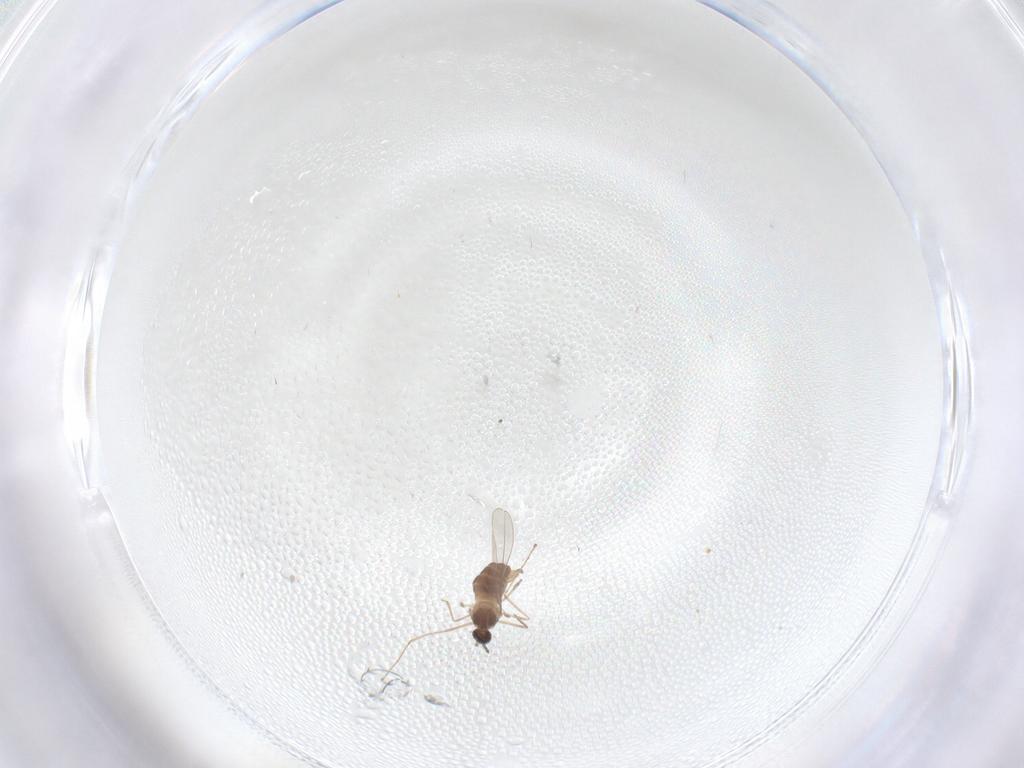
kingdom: Animalia
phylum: Arthropoda
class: Insecta
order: Diptera
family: Cecidomyiidae
